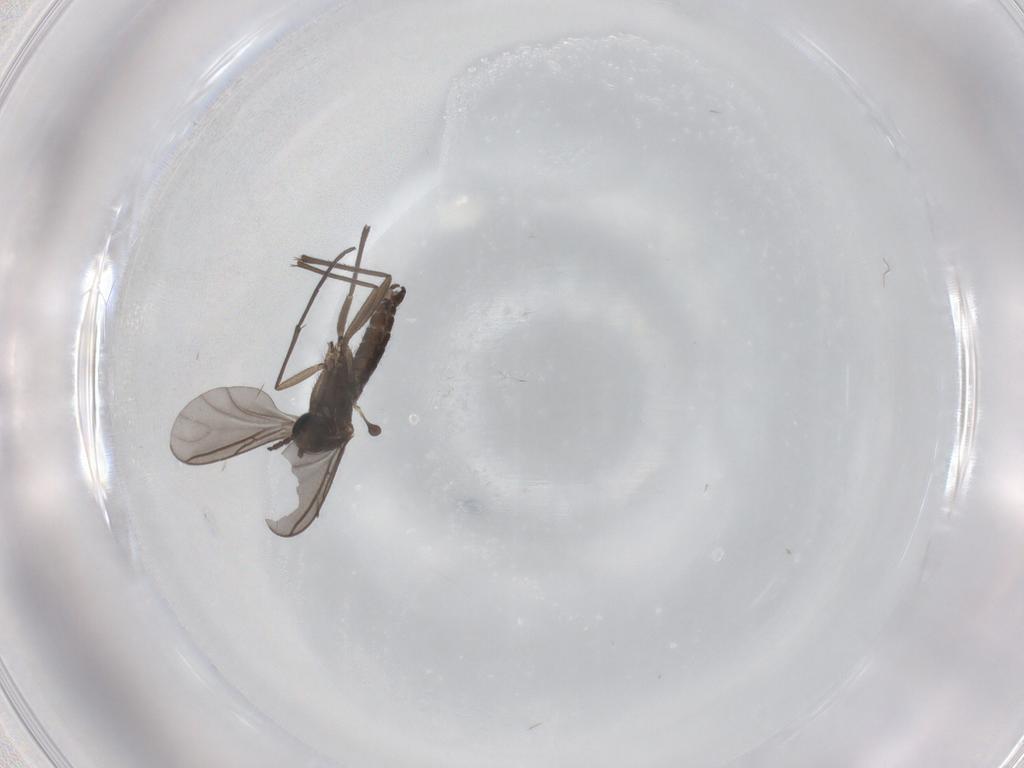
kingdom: Animalia
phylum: Arthropoda
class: Insecta
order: Diptera
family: Sciaridae
